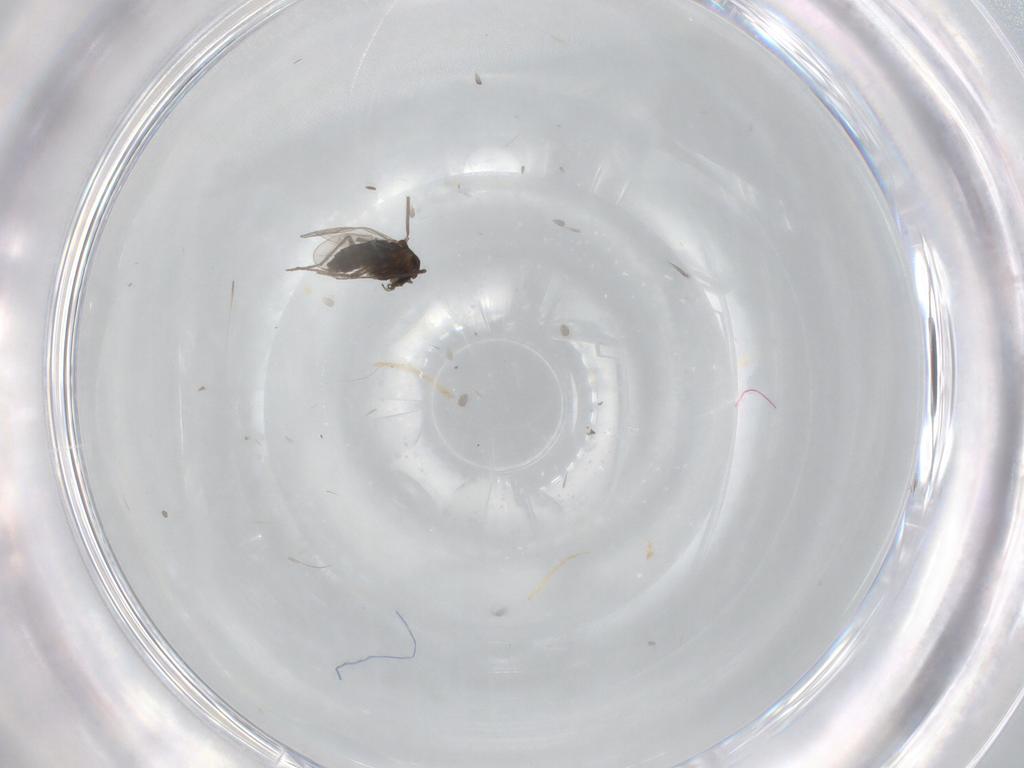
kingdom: Animalia
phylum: Arthropoda
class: Insecta
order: Diptera
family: Chironomidae
